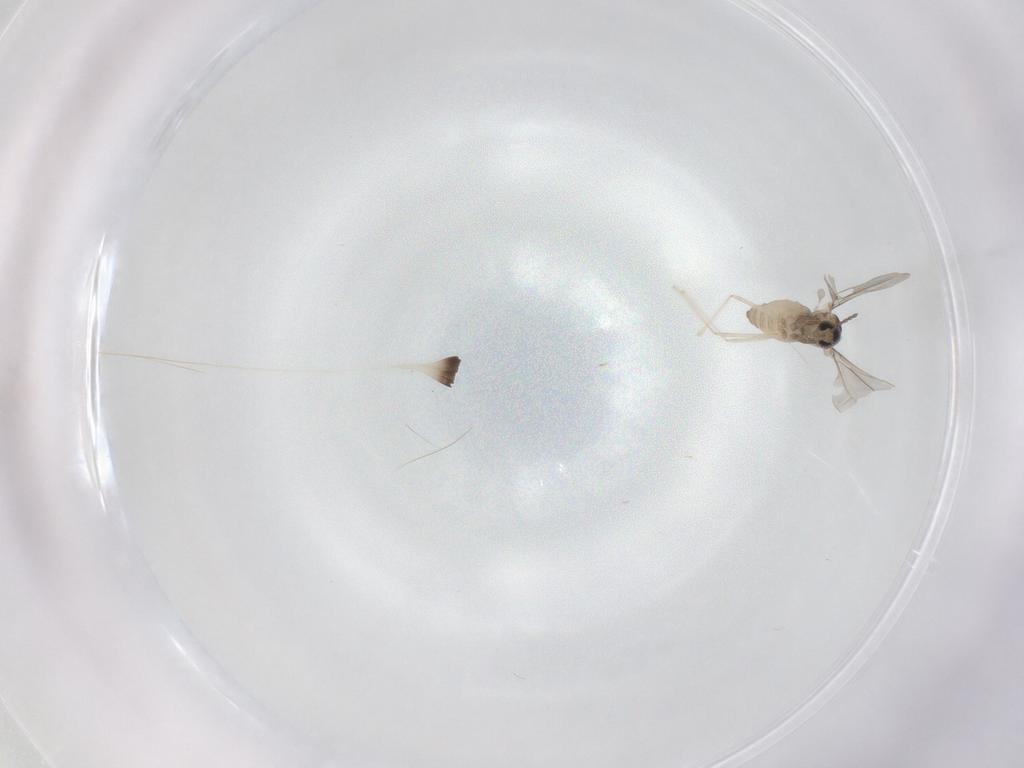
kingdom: Animalia
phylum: Arthropoda
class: Insecta
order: Diptera
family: Cecidomyiidae
